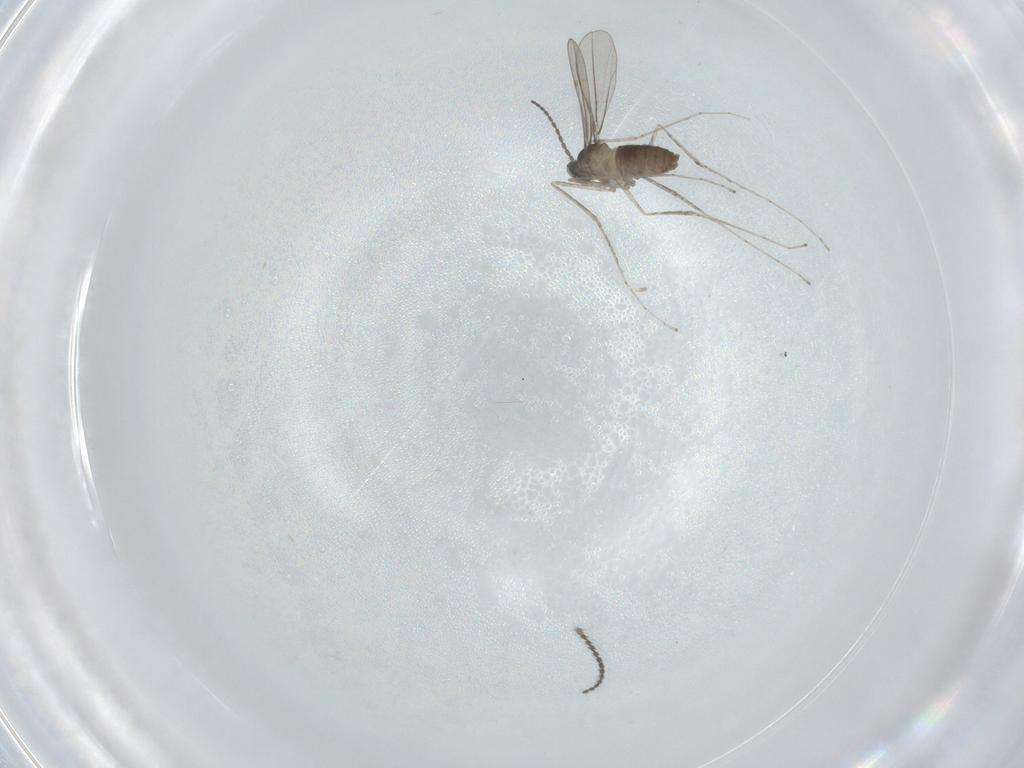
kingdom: Animalia
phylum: Arthropoda
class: Insecta
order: Diptera
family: Cecidomyiidae
